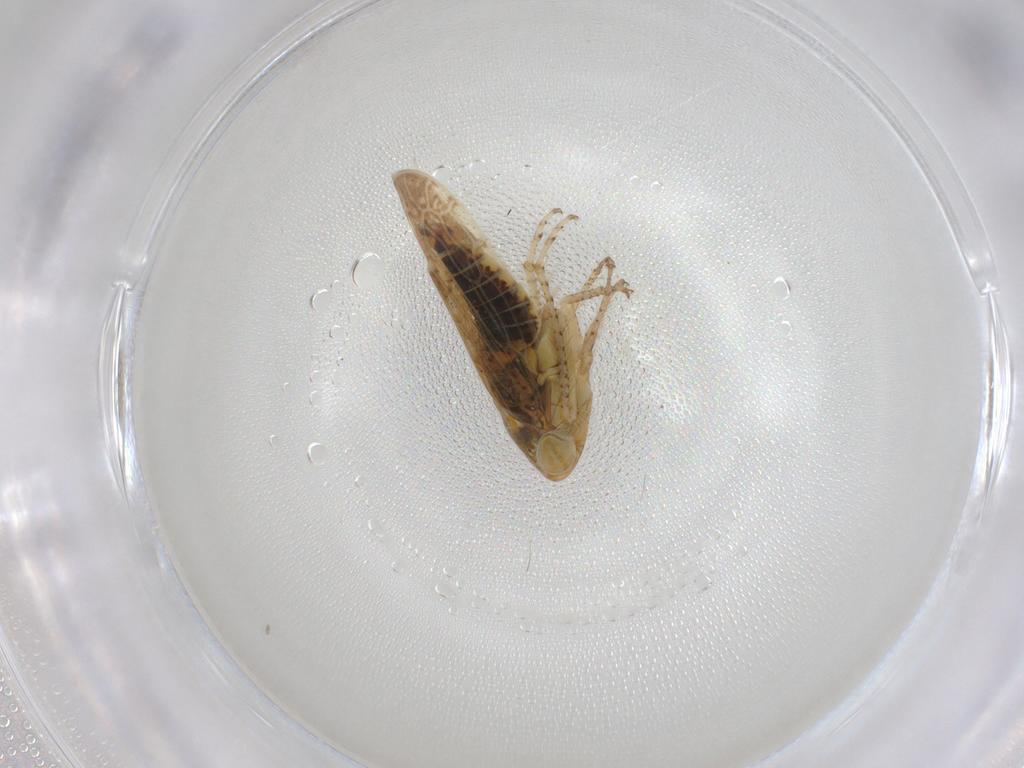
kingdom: Animalia
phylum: Arthropoda
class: Insecta
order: Hemiptera
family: Cicadellidae
